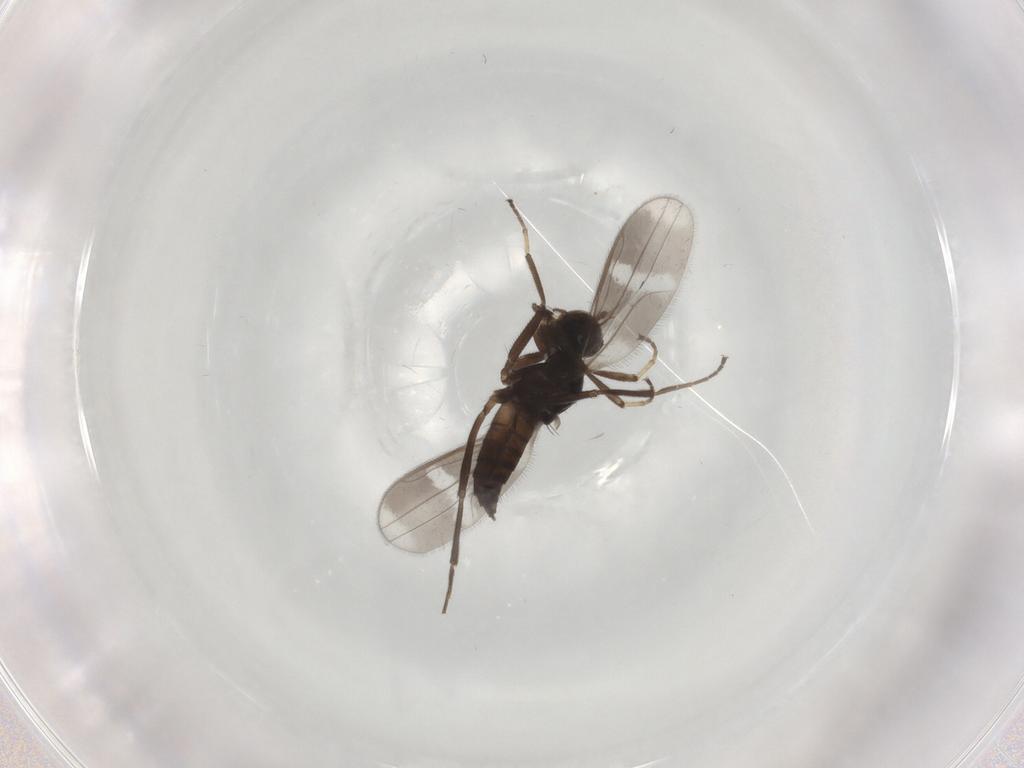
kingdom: Animalia
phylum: Arthropoda
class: Insecta
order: Diptera
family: Hybotidae
